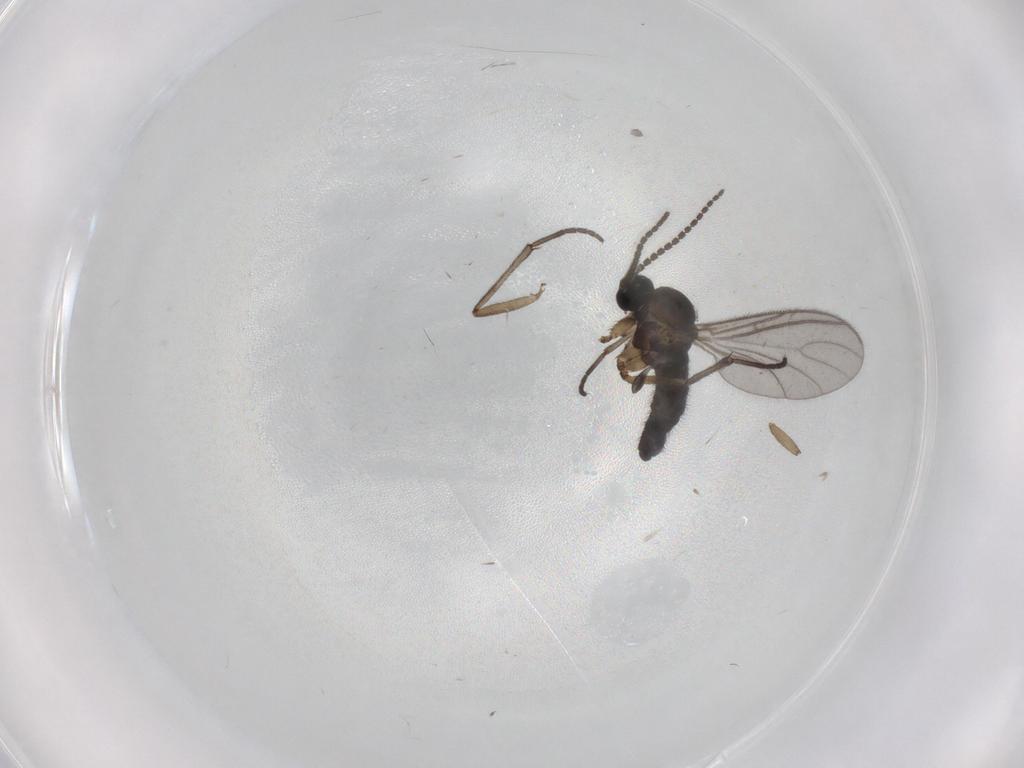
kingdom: Animalia
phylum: Arthropoda
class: Insecta
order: Diptera
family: Sciaridae
